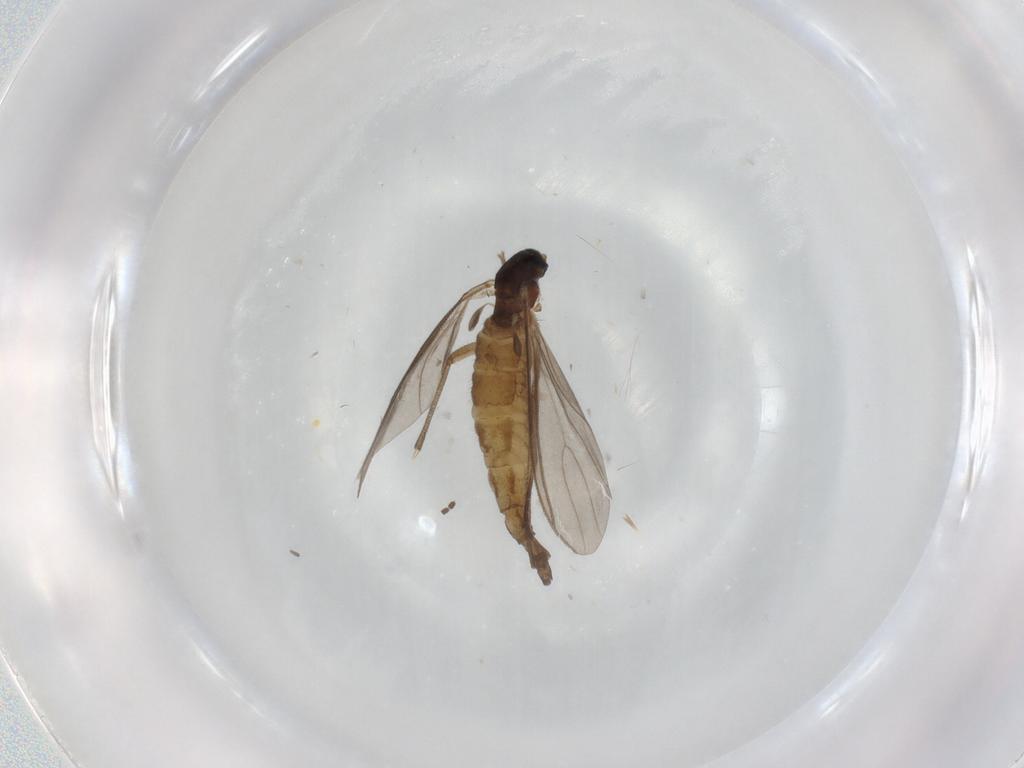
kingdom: Animalia
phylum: Arthropoda
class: Insecta
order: Diptera
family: Sciaridae
